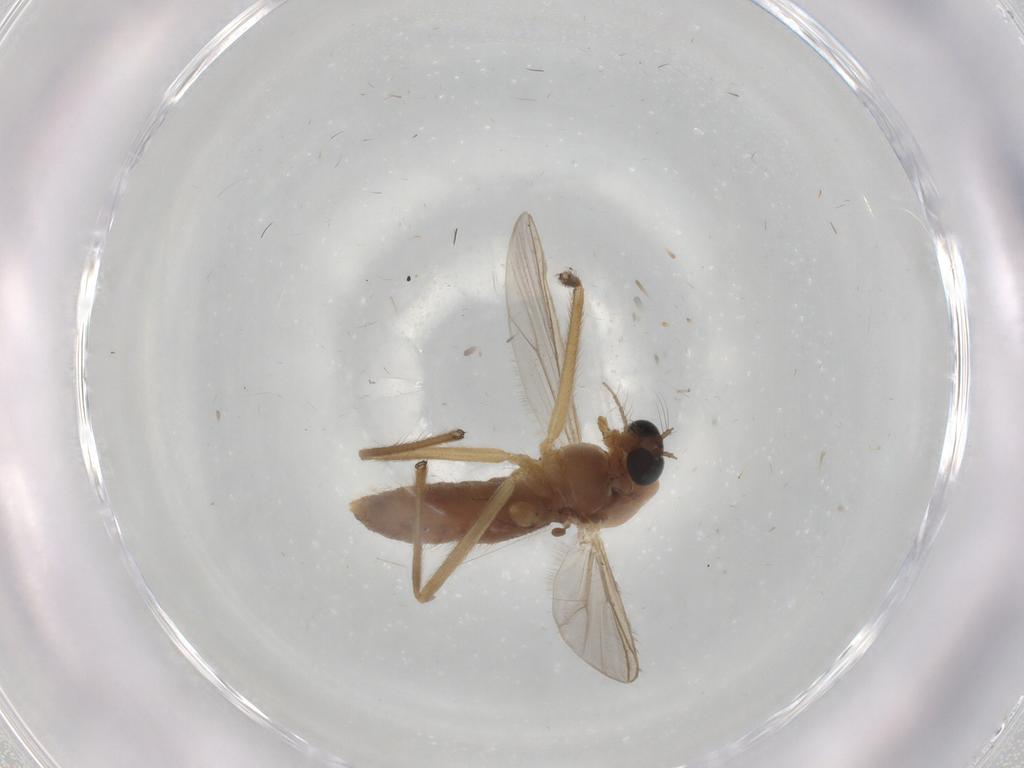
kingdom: Animalia
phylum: Arthropoda
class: Insecta
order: Diptera
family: Chironomidae
